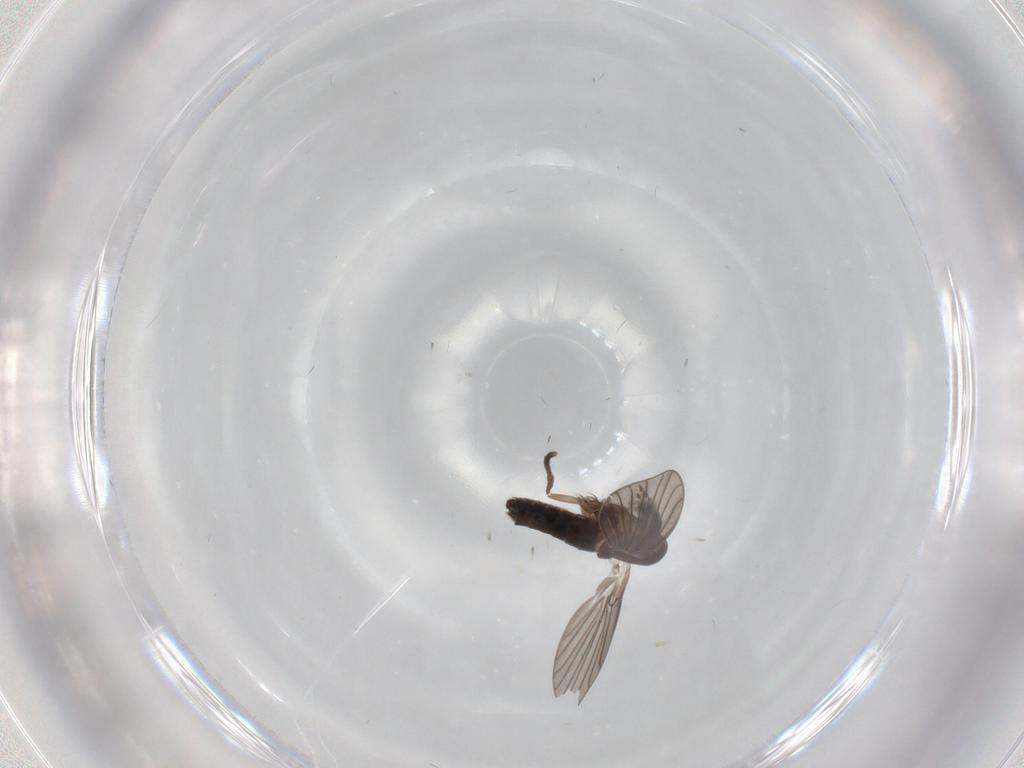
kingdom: Animalia
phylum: Arthropoda
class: Insecta
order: Diptera
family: Cecidomyiidae
